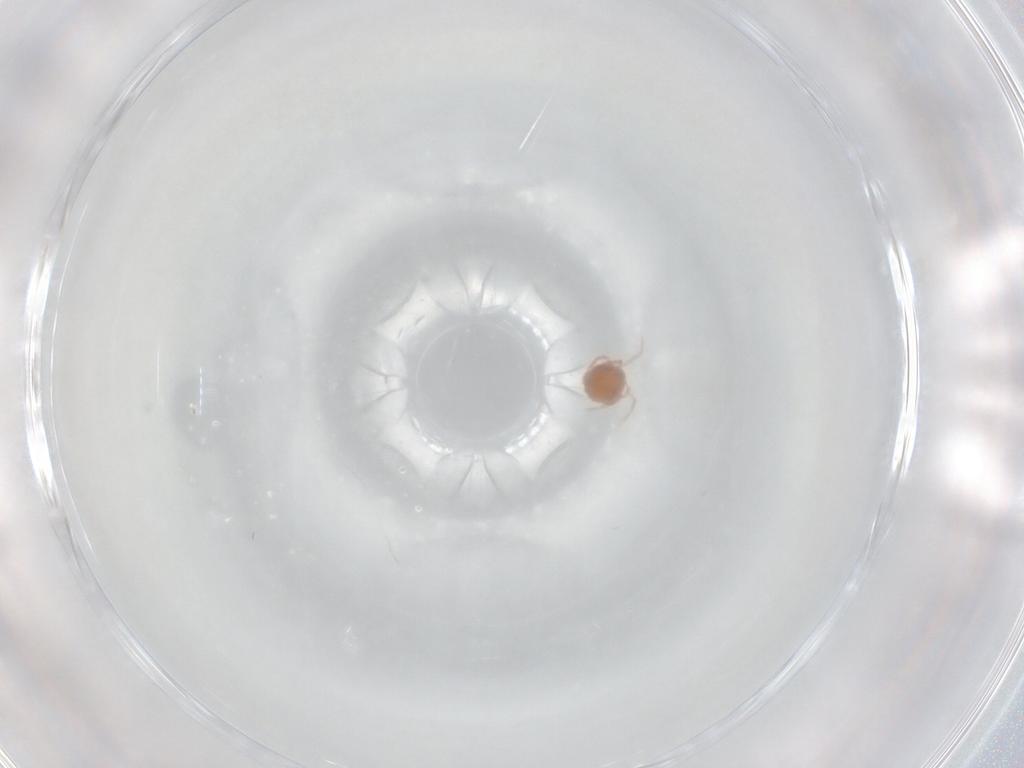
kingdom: Animalia
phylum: Arthropoda
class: Arachnida
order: Trombidiformes
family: Lebertiidae
